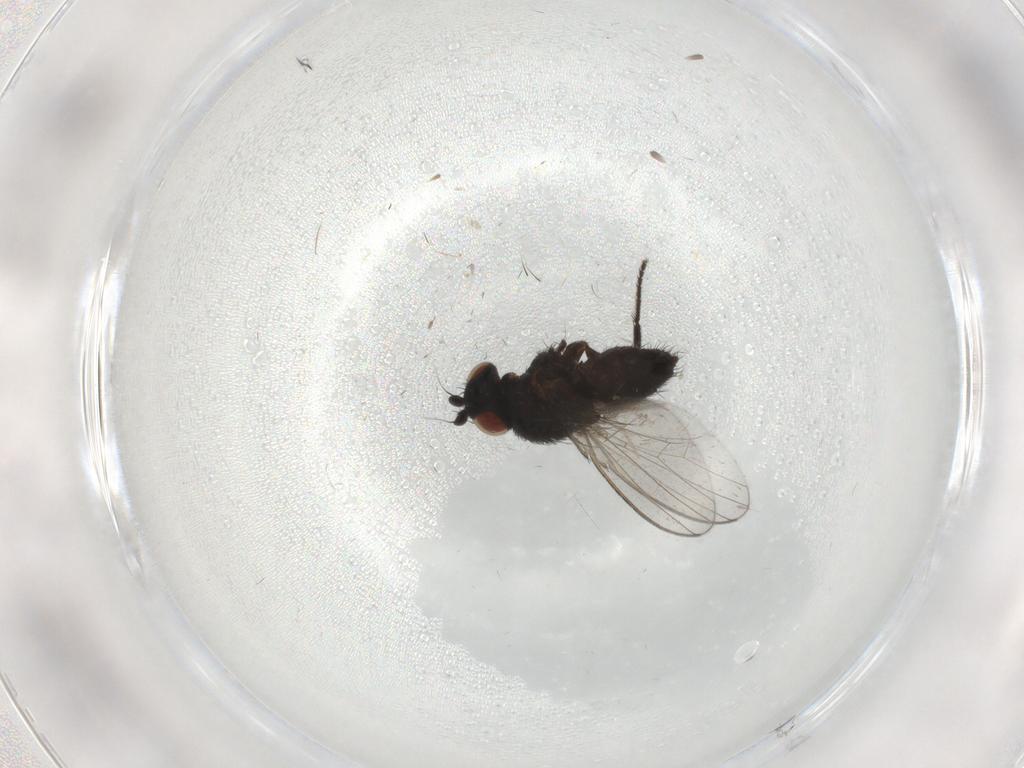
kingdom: Animalia
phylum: Arthropoda
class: Insecta
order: Diptera
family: Milichiidae
